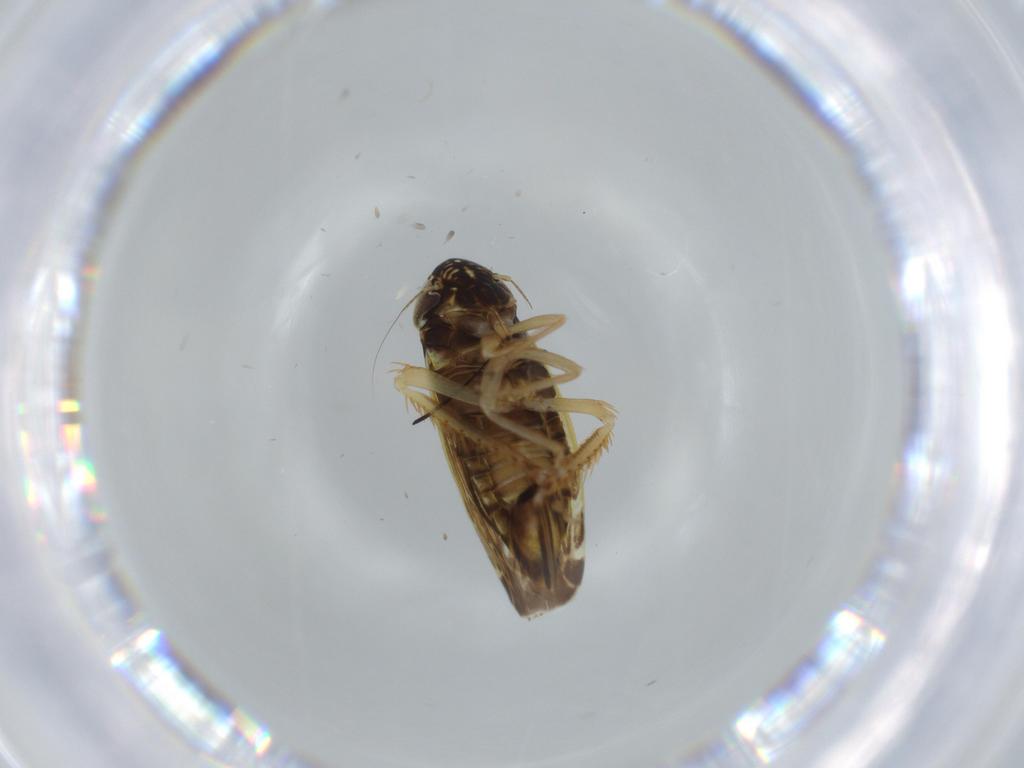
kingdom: Animalia
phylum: Arthropoda
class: Insecta
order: Hemiptera
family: Cicadellidae
